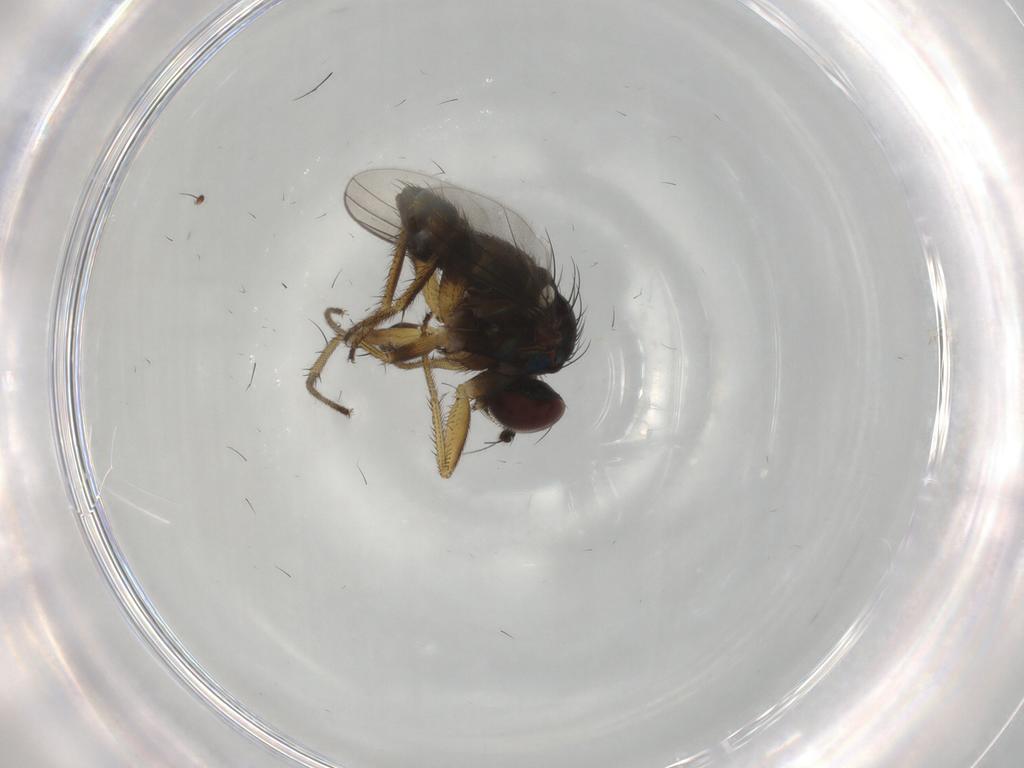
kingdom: Animalia
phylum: Arthropoda
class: Insecta
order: Diptera
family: Dolichopodidae
